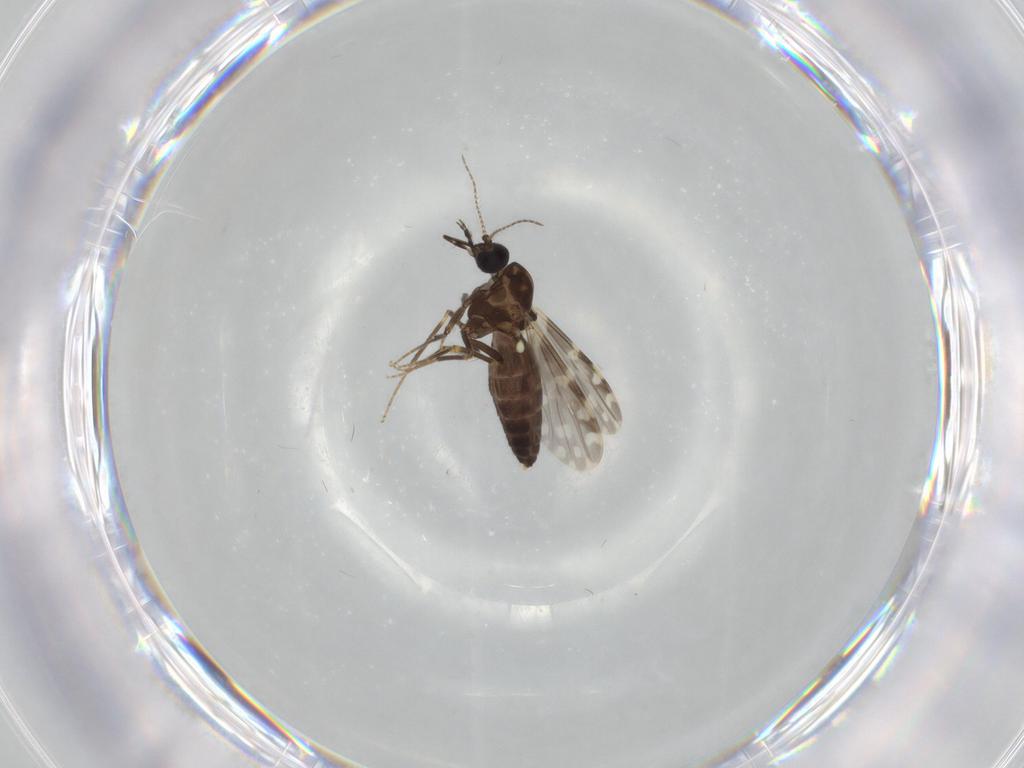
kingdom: Animalia
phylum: Arthropoda
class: Insecta
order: Diptera
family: Ceratopogonidae
